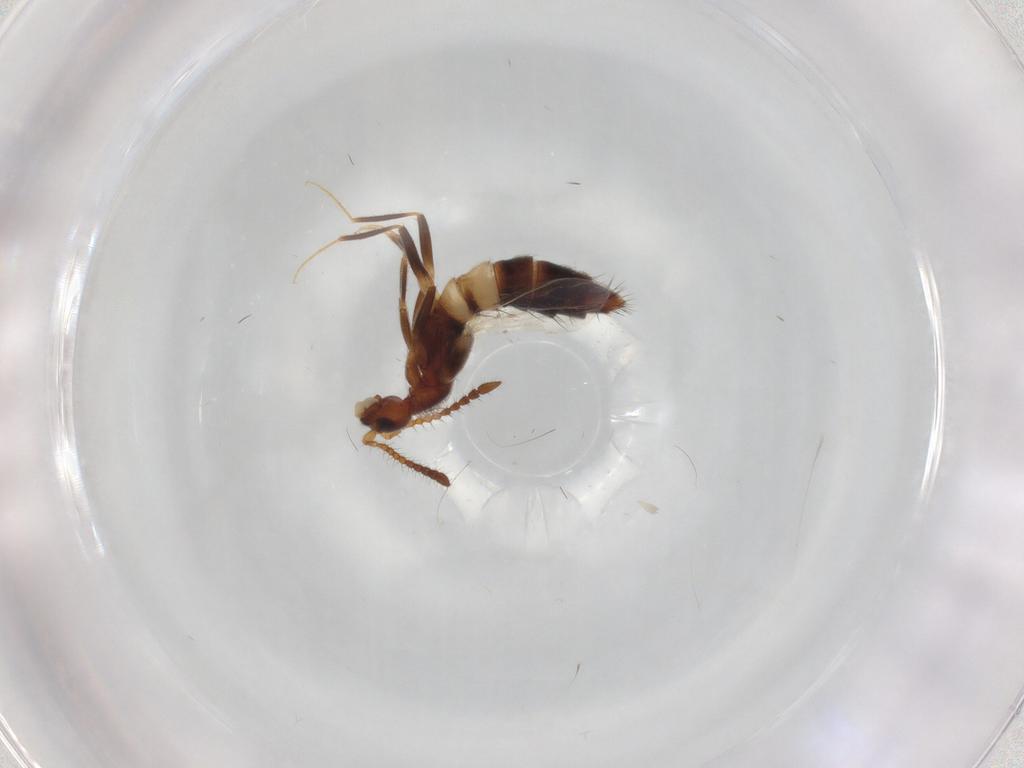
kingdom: Animalia
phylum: Arthropoda
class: Insecta
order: Coleoptera
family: Staphylinidae
